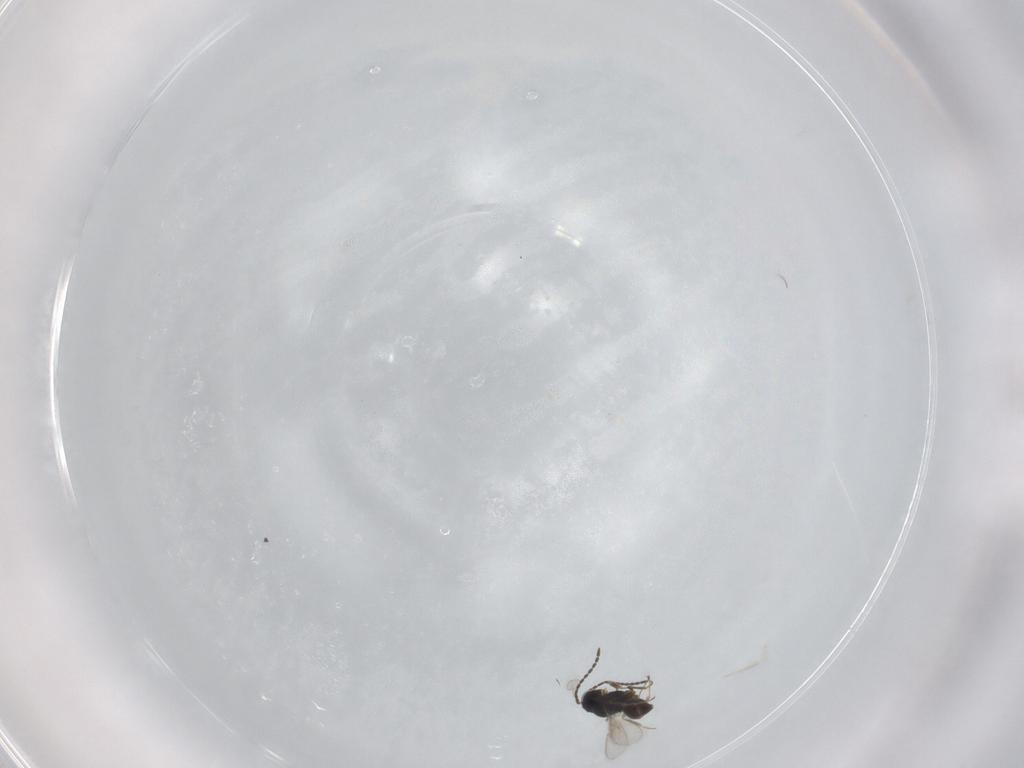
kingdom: Animalia
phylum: Arthropoda
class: Insecta
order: Hymenoptera
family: Scelionidae
